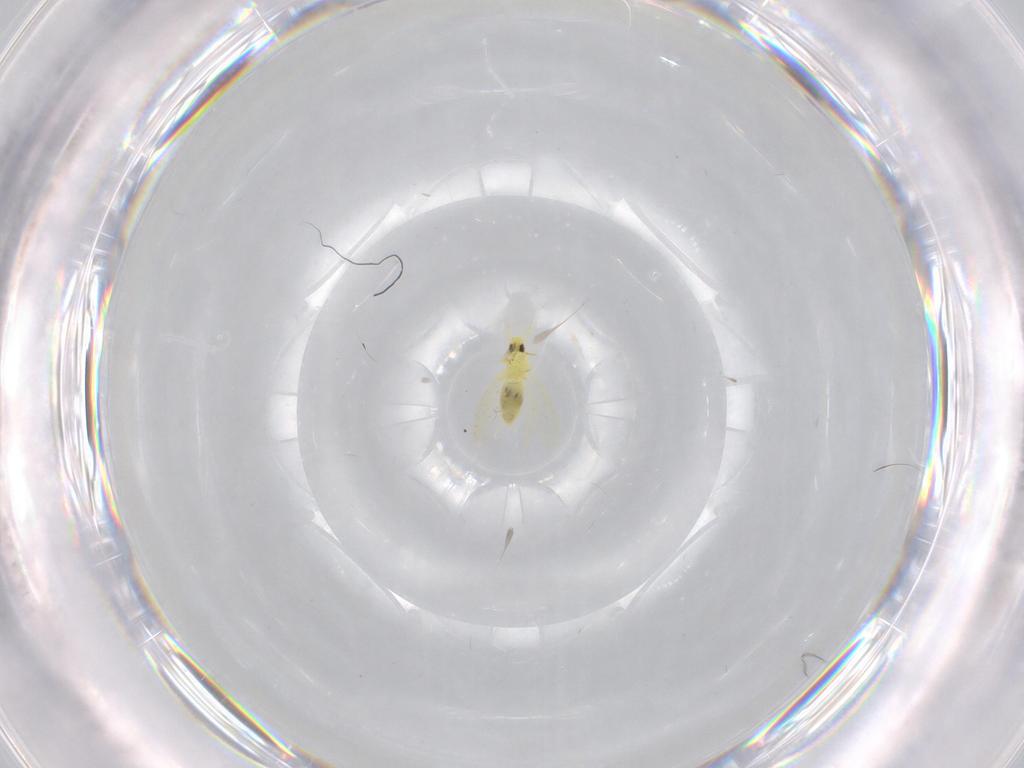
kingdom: Animalia
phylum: Arthropoda
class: Insecta
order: Hemiptera
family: Aleyrodidae
